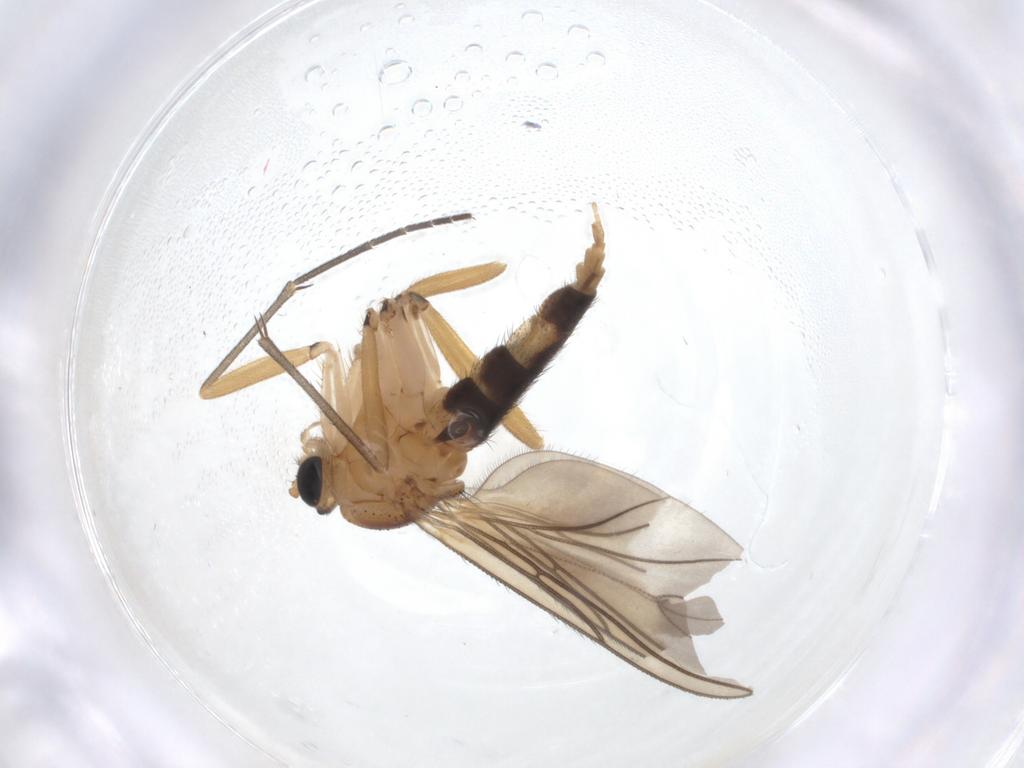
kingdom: Animalia
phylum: Arthropoda
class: Insecta
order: Diptera
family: Sciaridae
